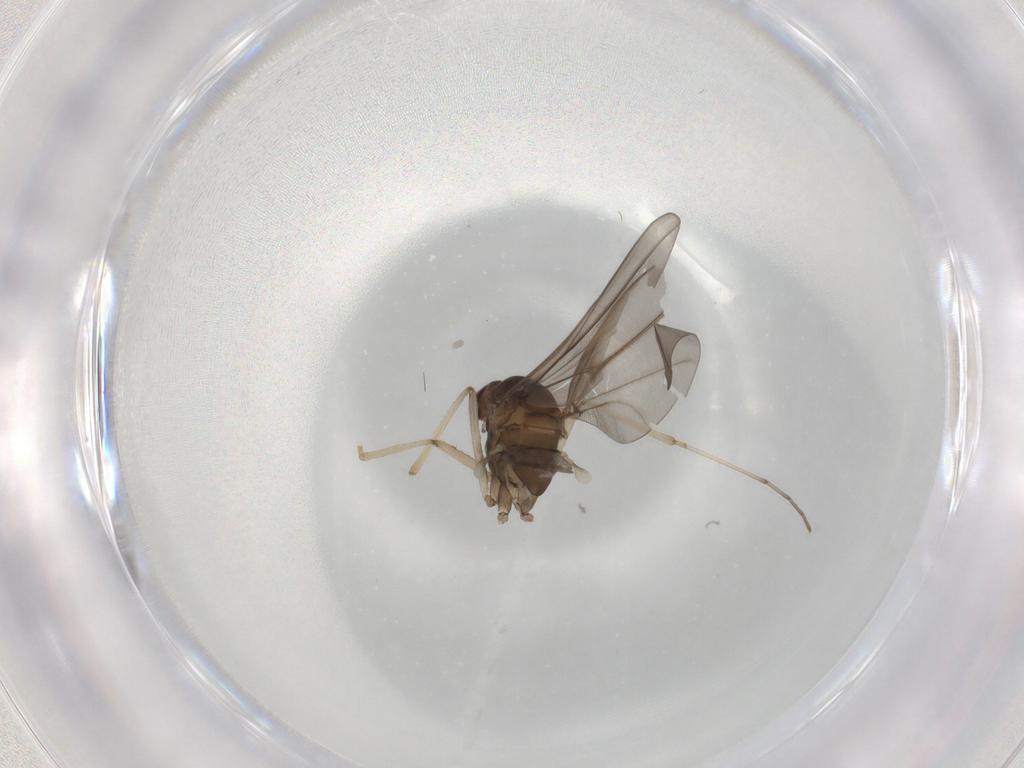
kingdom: Animalia
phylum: Arthropoda
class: Insecta
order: Diptera
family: Cecidomyiidae
